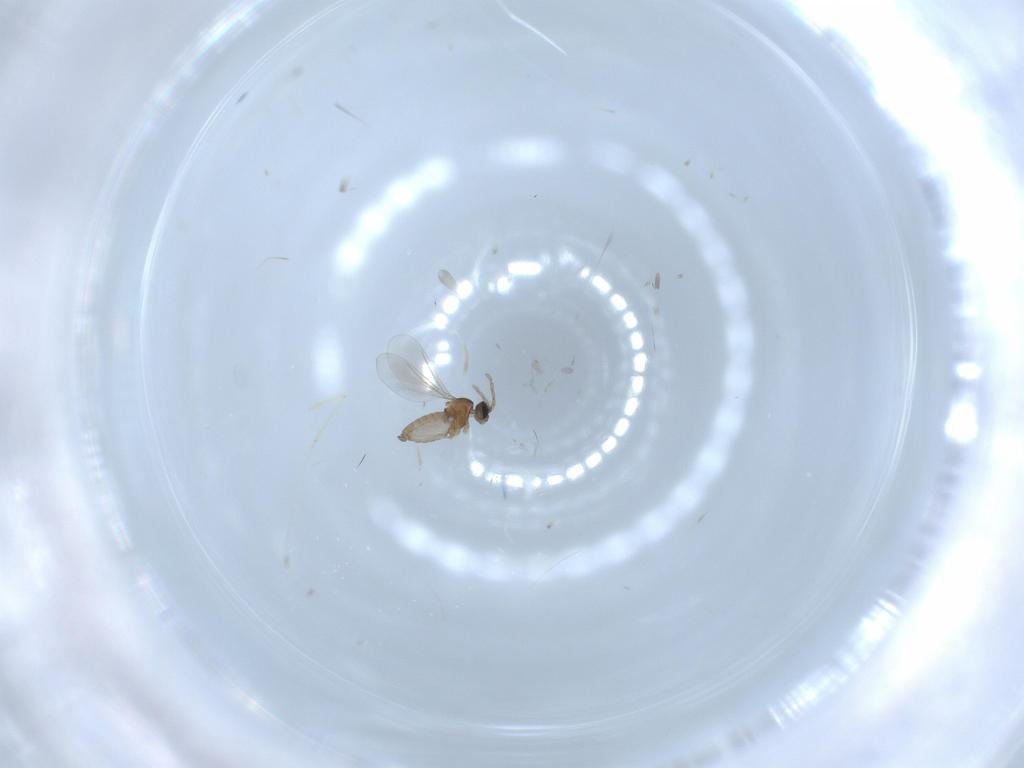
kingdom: Animalia
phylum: Arthropoda
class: Insecta
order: Diptera
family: Cecidomyiidae
